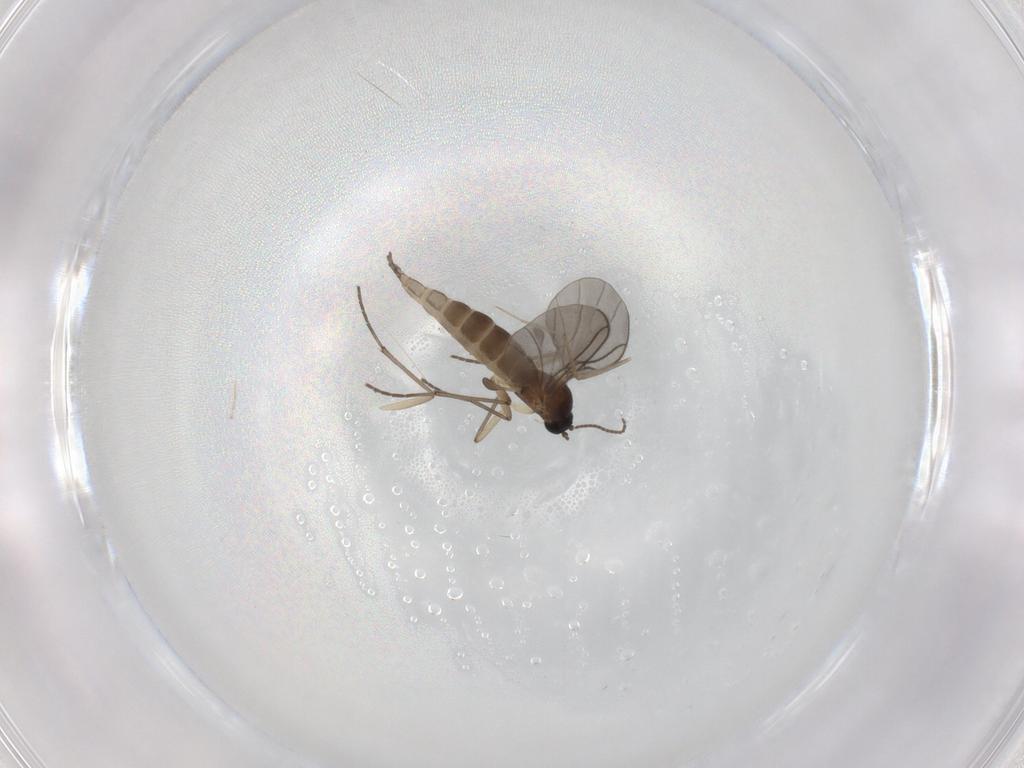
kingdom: Animalia
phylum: Arthropoda
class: Insecta
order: Diptera
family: Sciaridae
